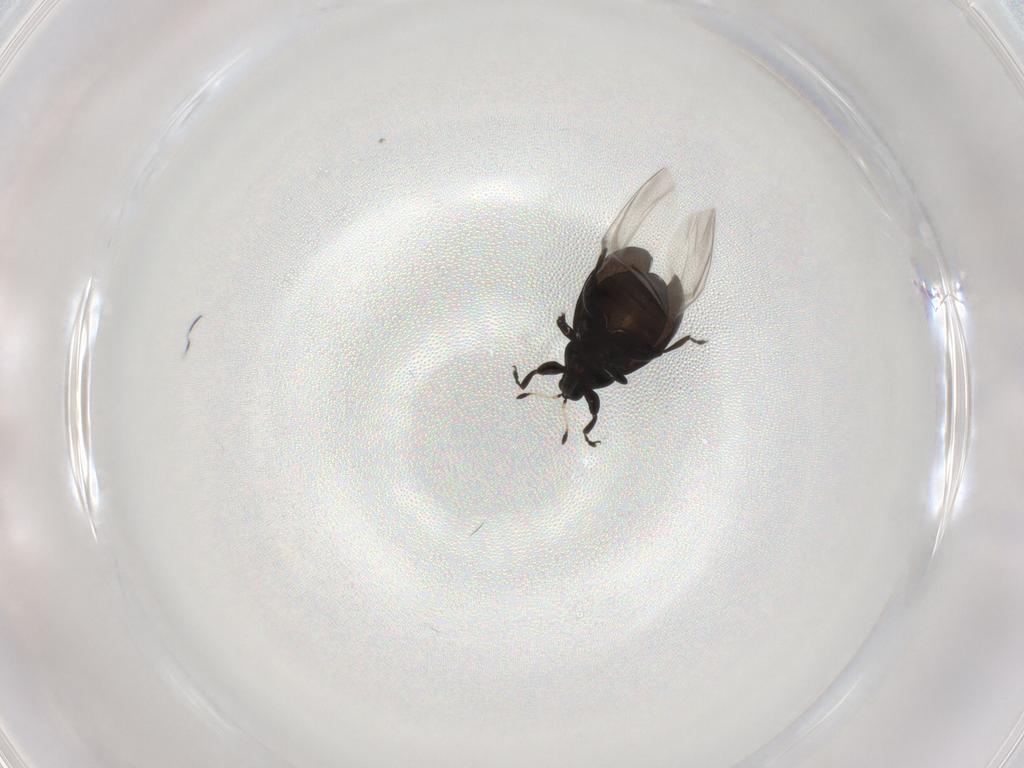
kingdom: Animalia
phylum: Arthropoda
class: Insecta
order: Coleoptera
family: Curculionidae
